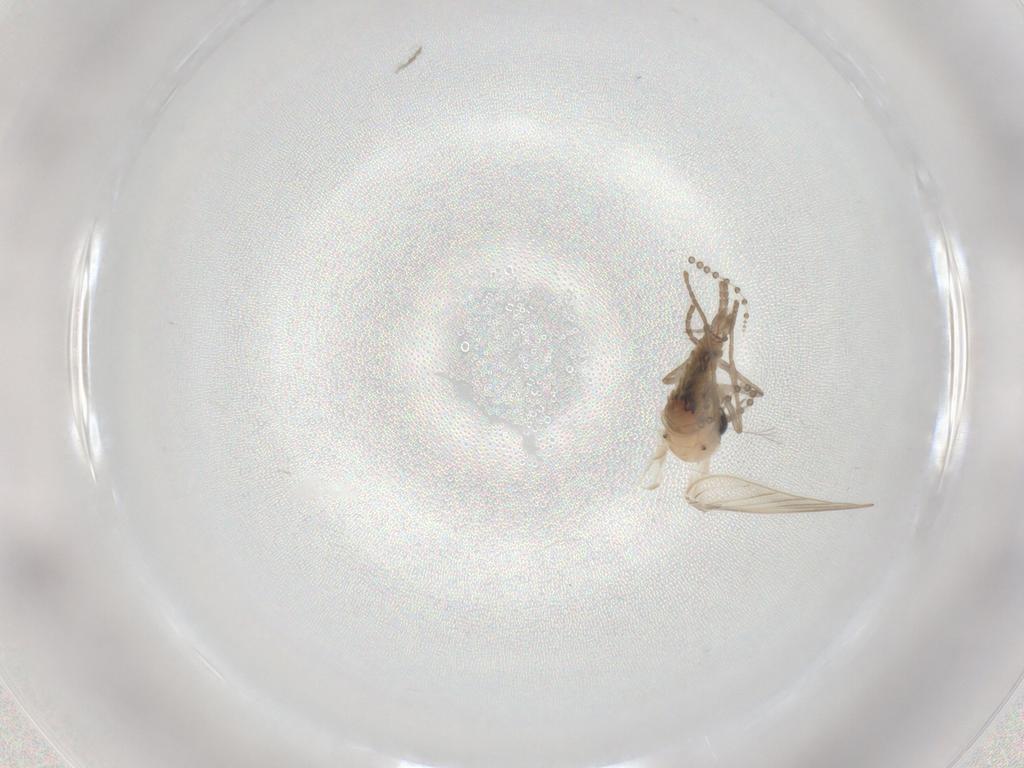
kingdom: Animalia
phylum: Arthropoda
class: Insecta
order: Diptera
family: Psychodidae
